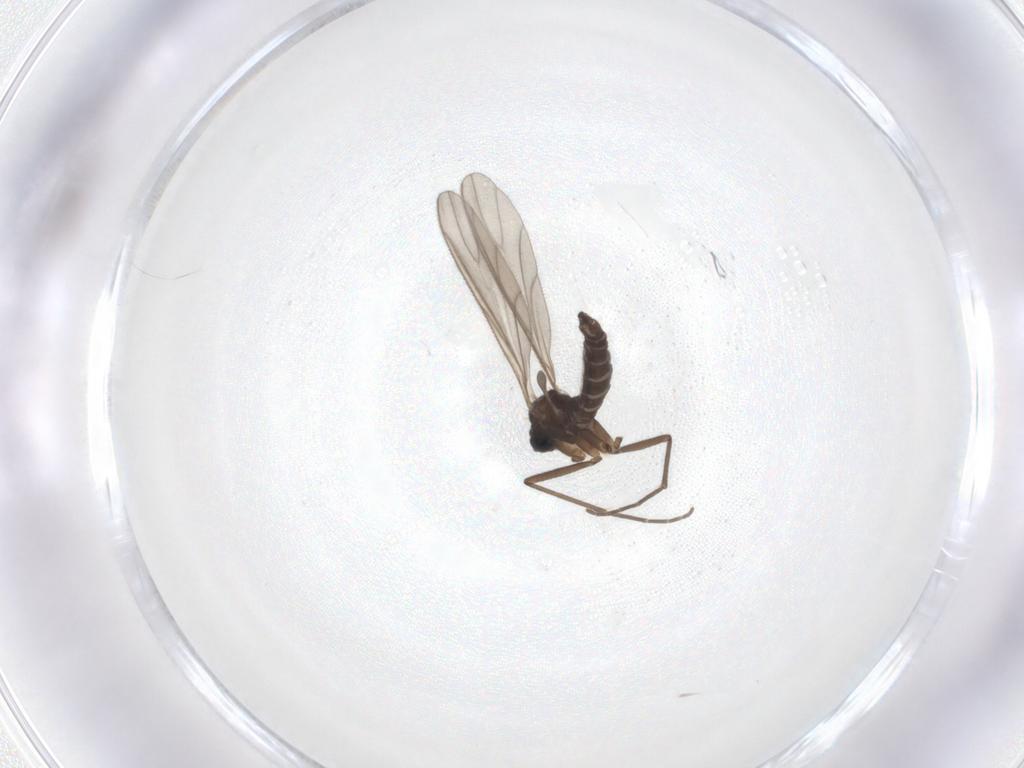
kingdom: Animalia
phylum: Arthropoda
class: Insecta
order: Diptera
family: Sciaridae
